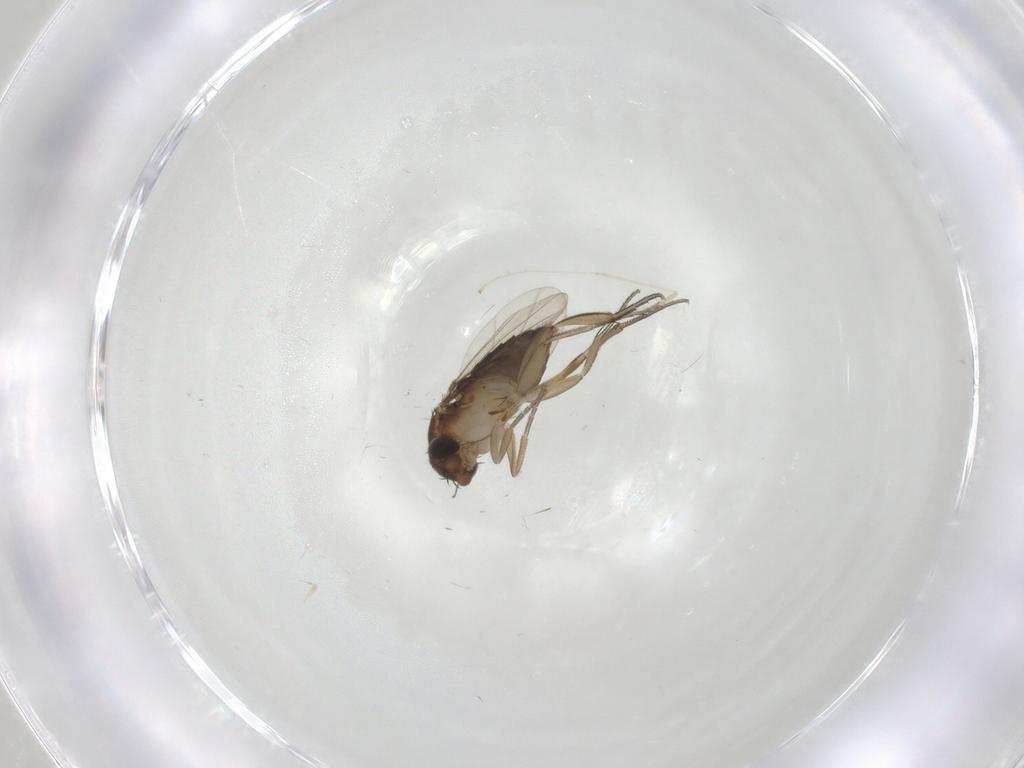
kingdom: Animalia
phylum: Arthropoda
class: Insecta
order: Diptera
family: Phoridae
